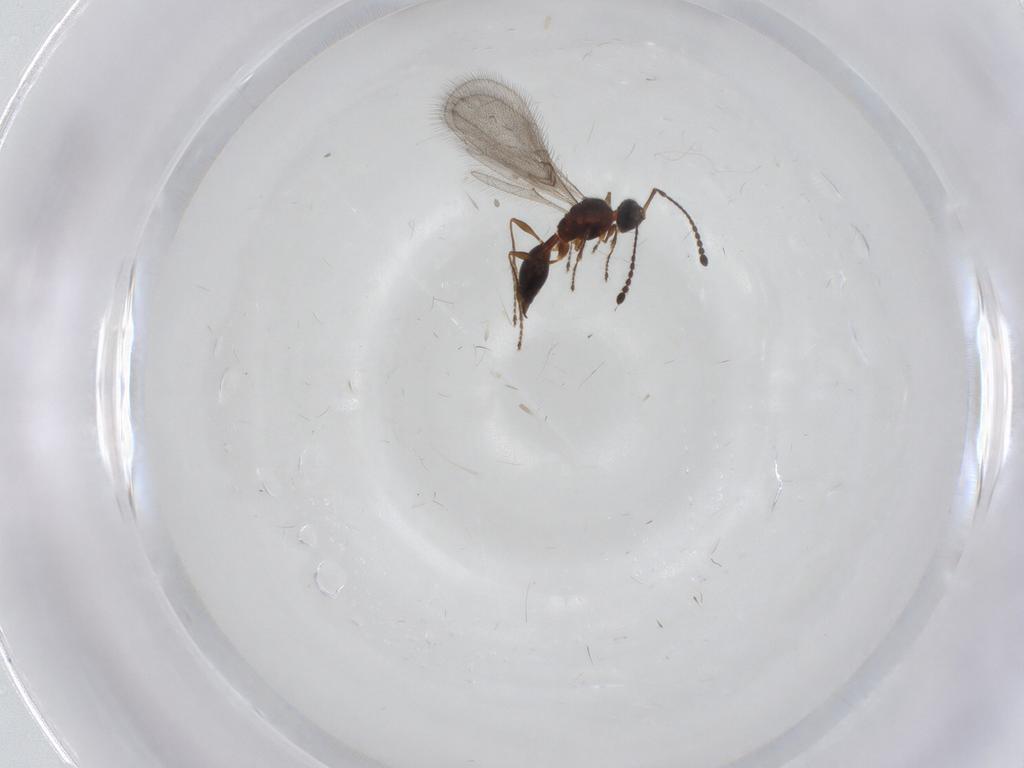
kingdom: Animalia
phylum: Arthropoda
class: Insecta
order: Hymenoptera
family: Diapriidae
